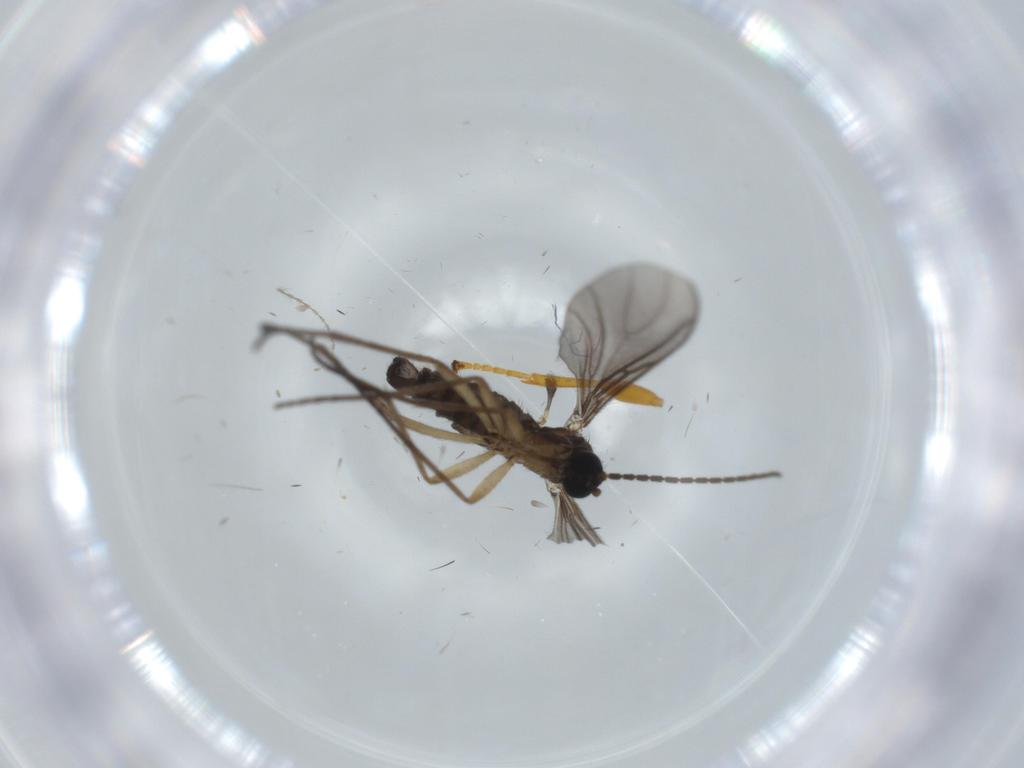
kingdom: Animalia
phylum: Arthropoda
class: Insecta
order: Diptera
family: Sciaridae
